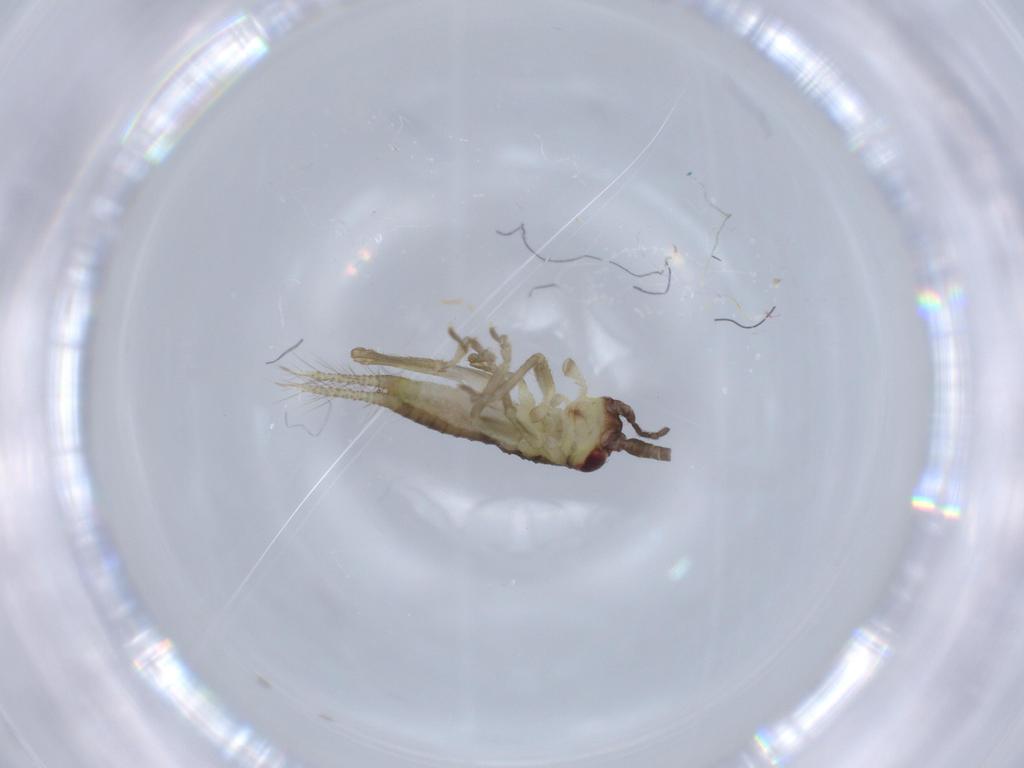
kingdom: Animalia
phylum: Arthropoda
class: Insecta
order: Orthoptera
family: Gryllidae
